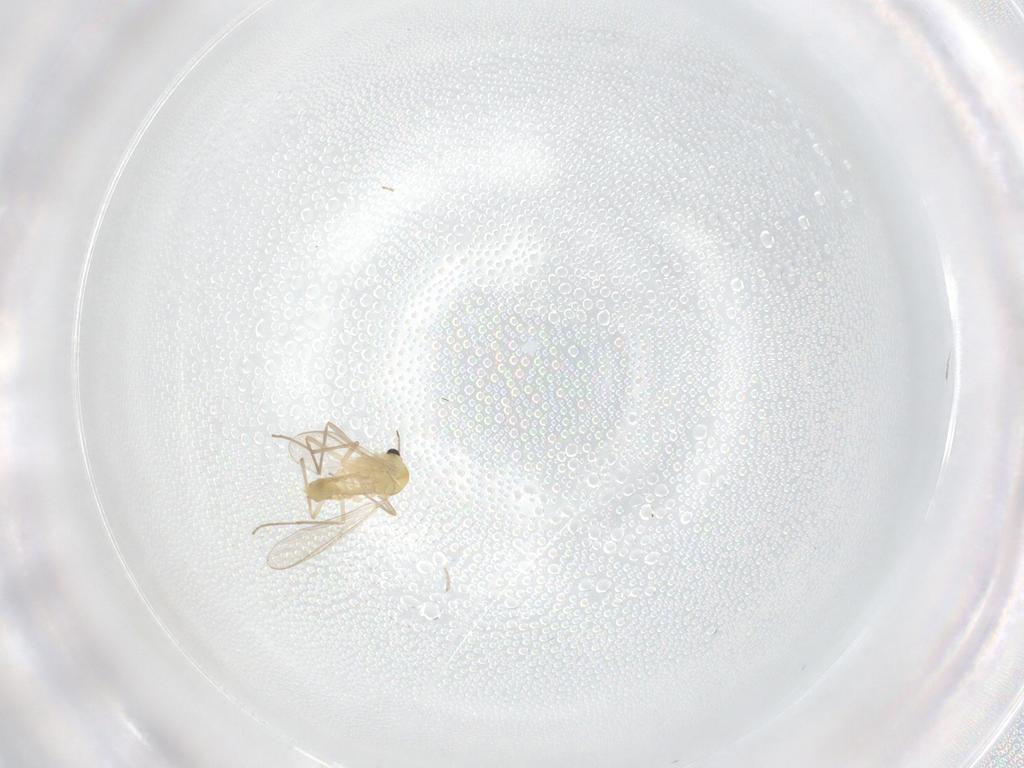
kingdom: Animalia
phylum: Arthropoda
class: Insecta
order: Diptera
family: Chironomidae
